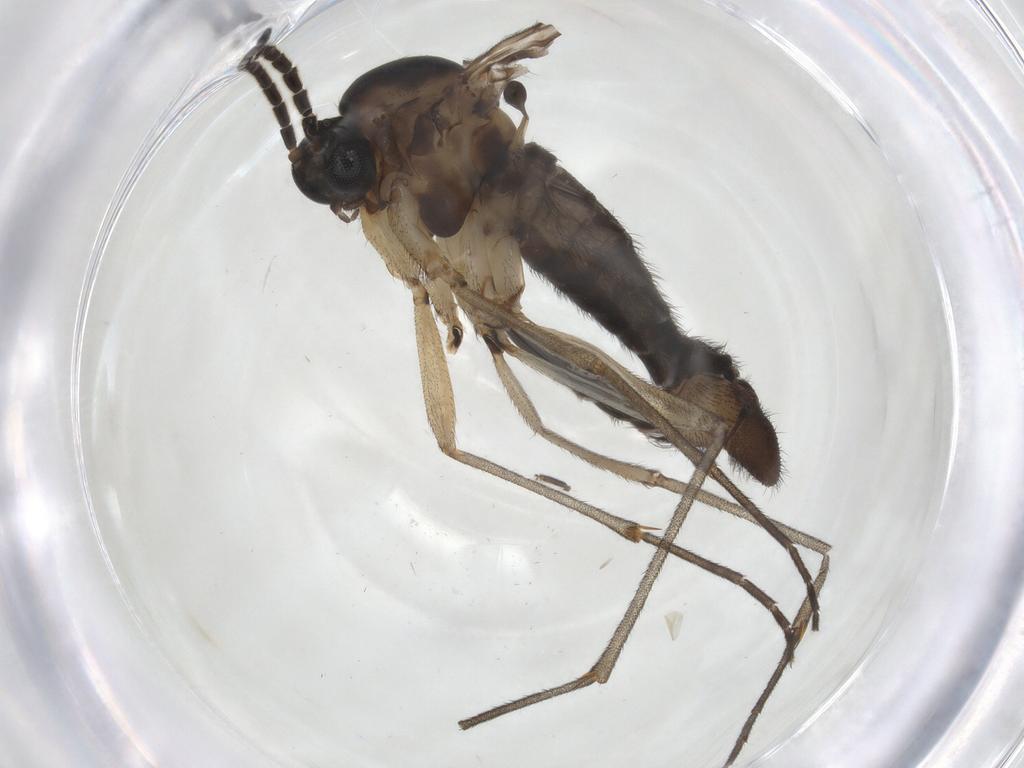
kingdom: Animalia
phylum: Arthropoda
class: Insecta
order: Diptera
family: Sciaridae
